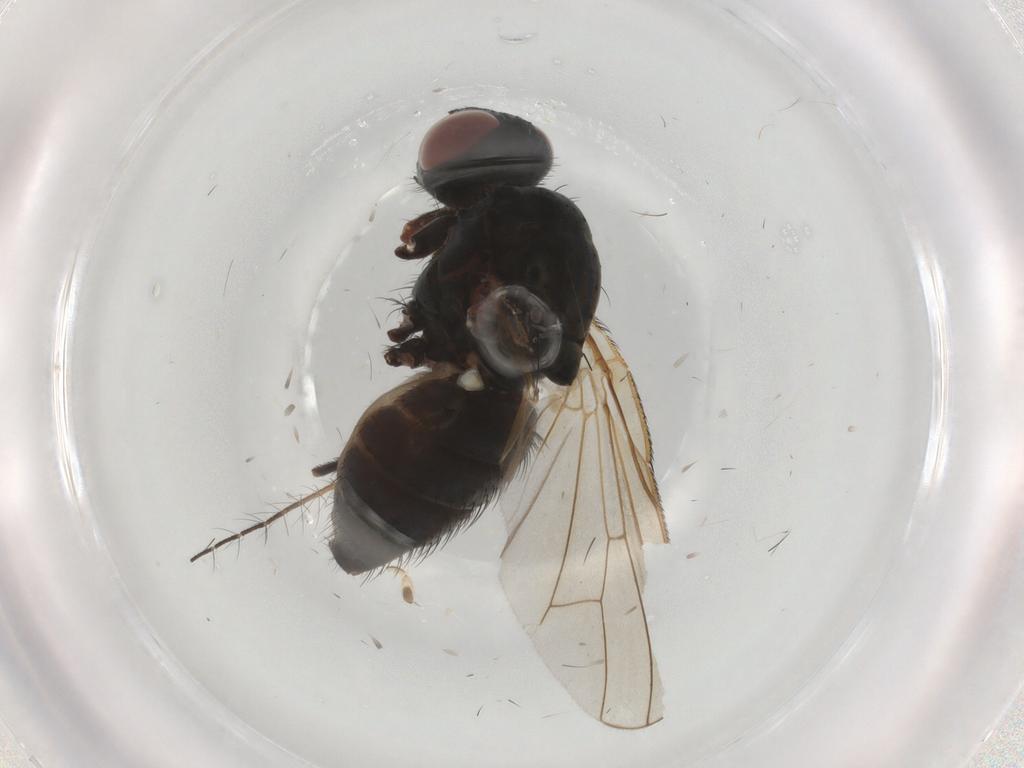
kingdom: Animalia
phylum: Arthropoda
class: Insecta
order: Diptera
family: Anthomyiidae
